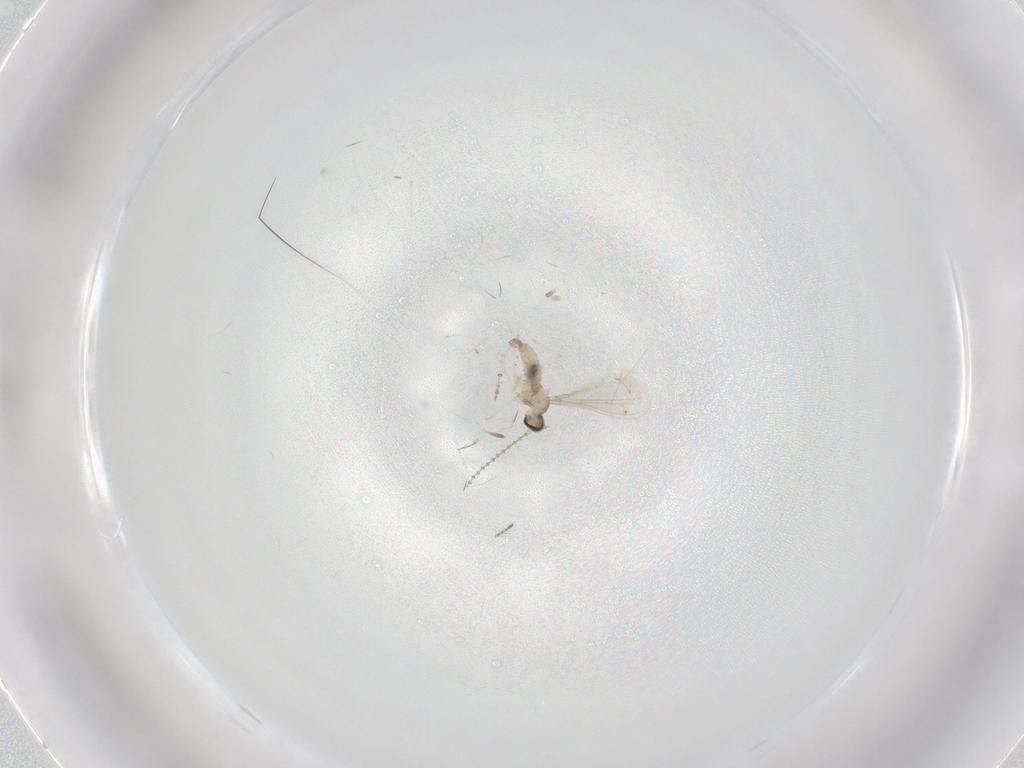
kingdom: Animalia
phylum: Arthropoda
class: Insecta
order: Diptera
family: Cecidomyiidae
